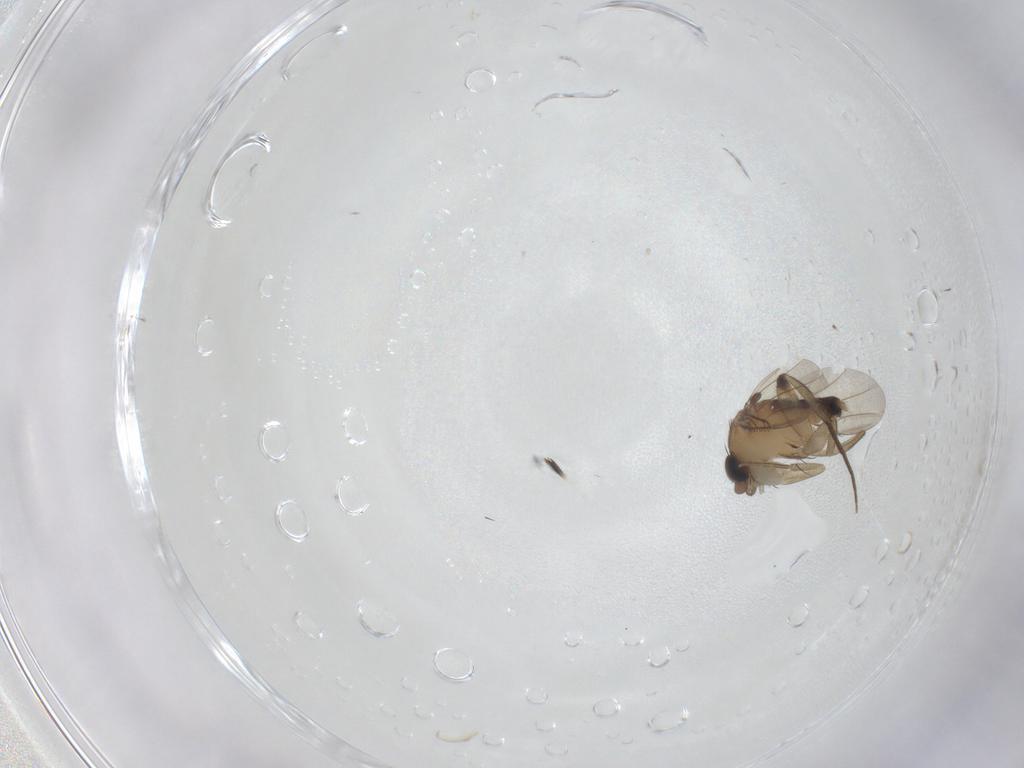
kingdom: Animalia
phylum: Arthropoda
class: Insecta
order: Diptera
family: Phoridae
